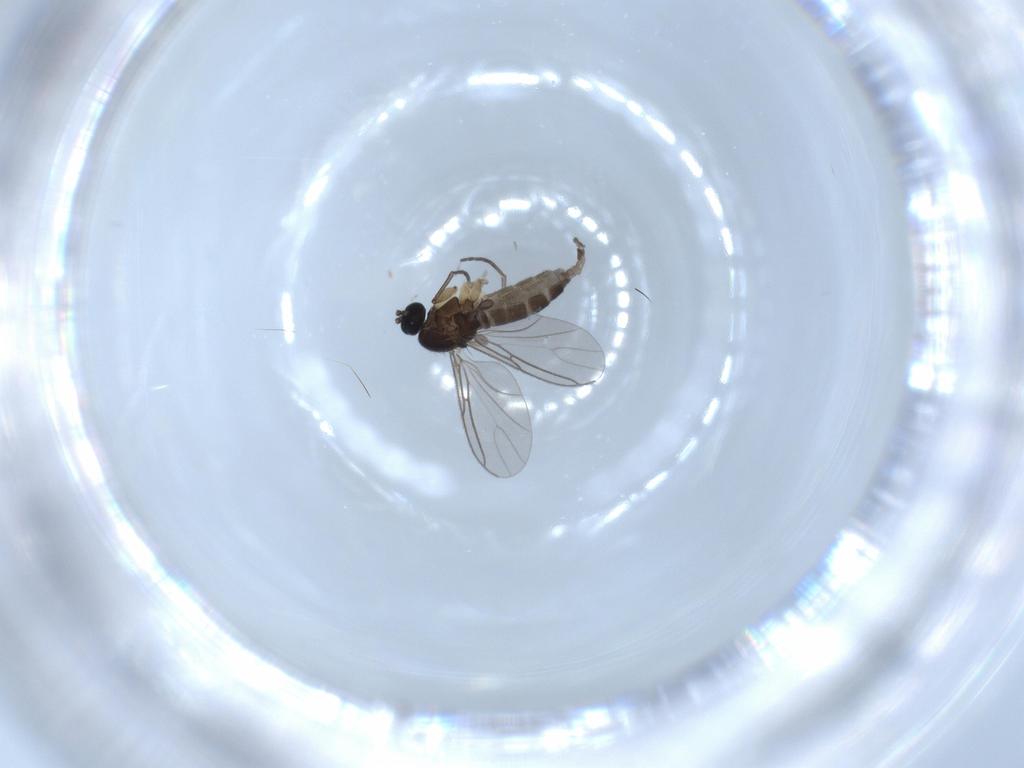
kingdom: Animalia
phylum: Arthropoda
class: Insecta
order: Diptera
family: Sciaridae
